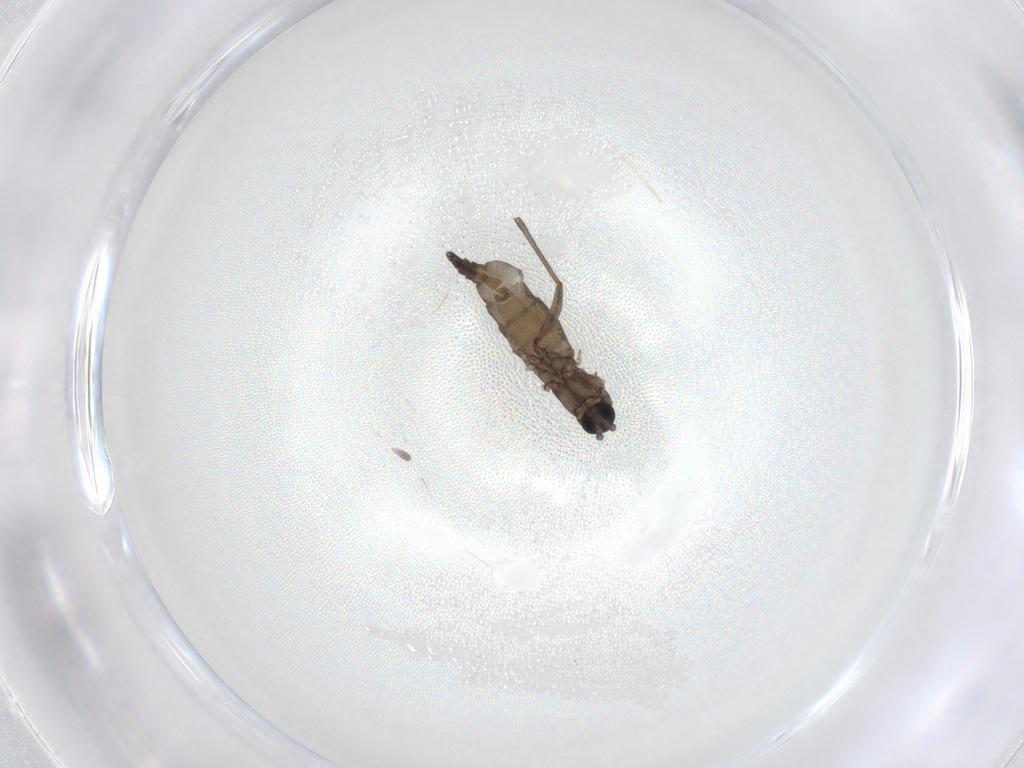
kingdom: Animalia
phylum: Arthropoda
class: Insecta
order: Diptera
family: Sciaridae
